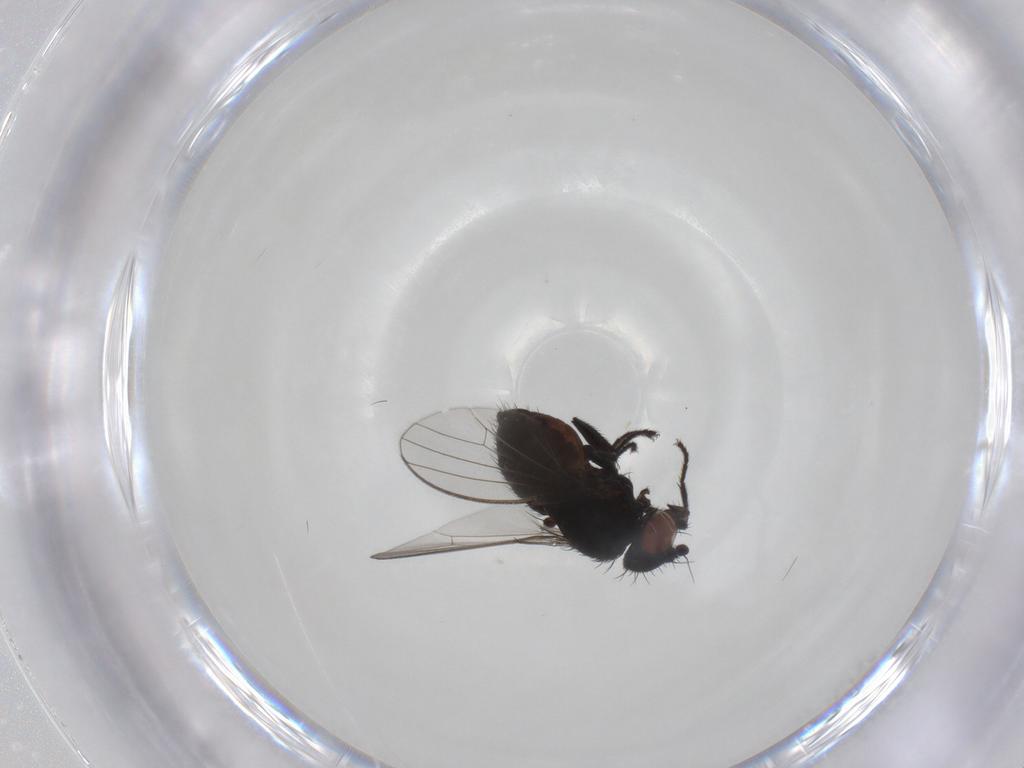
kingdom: Animalia
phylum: Arthropoda
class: Insecta
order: Diptera
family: Milichiidae
